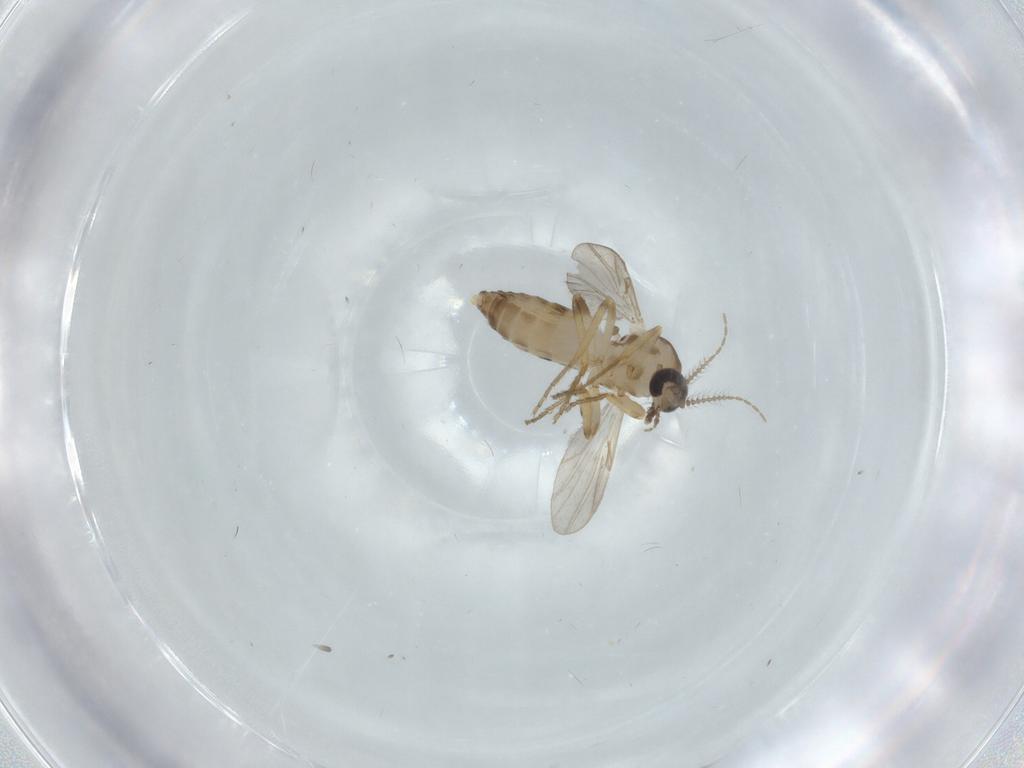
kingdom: Animalia
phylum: Arthropoda
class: Insecta
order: Diptera
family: Ceratopogonidae
